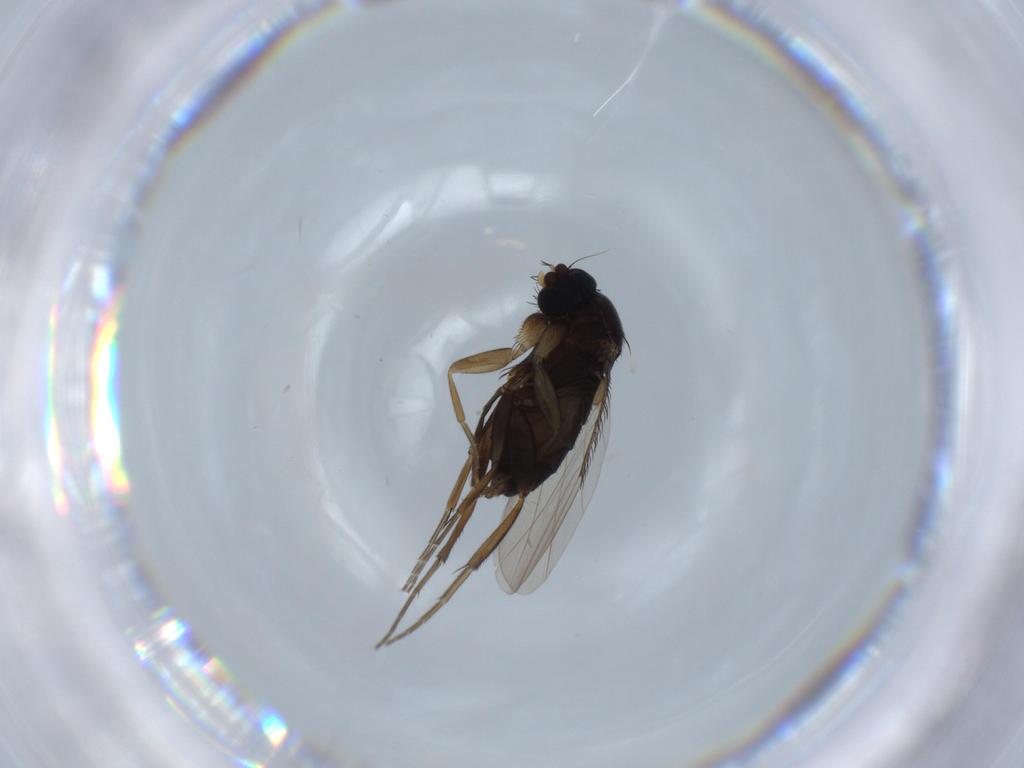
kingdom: Animalia
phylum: Arthropoda
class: Insecta
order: Diptera
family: Phoridae
